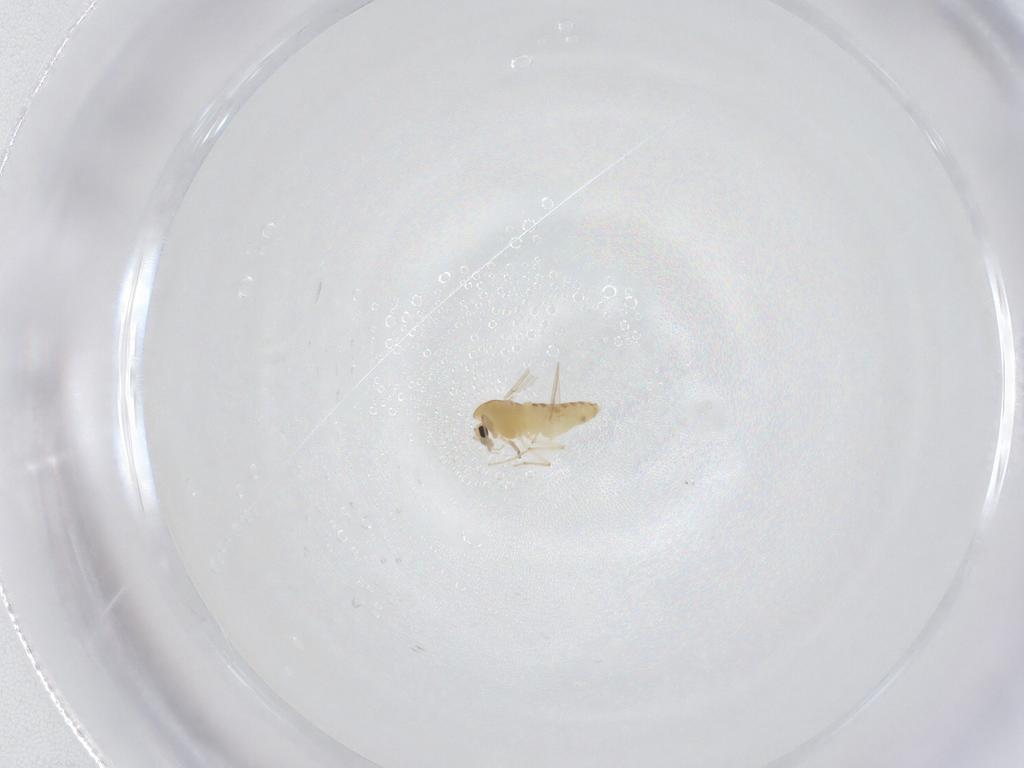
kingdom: Animalia
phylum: Arthropoda
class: Insecta
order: Diptera
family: Chironomidae
